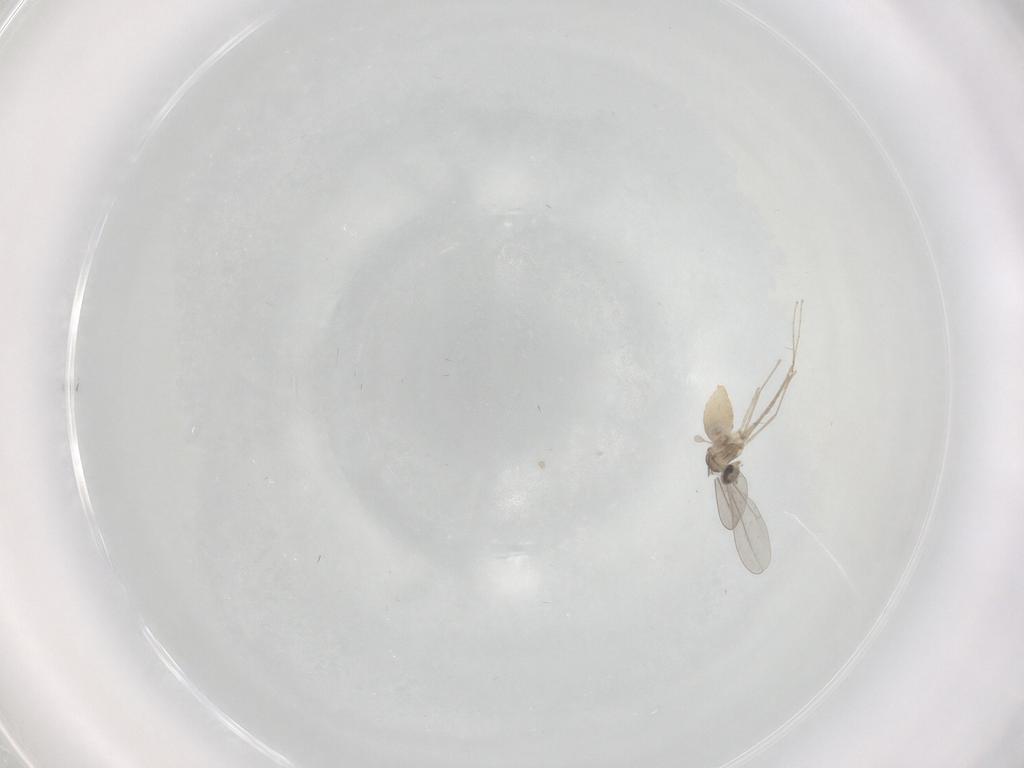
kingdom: Animalia
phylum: Arthropoda
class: Insecta
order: Diptera
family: Cecidomyiidae
